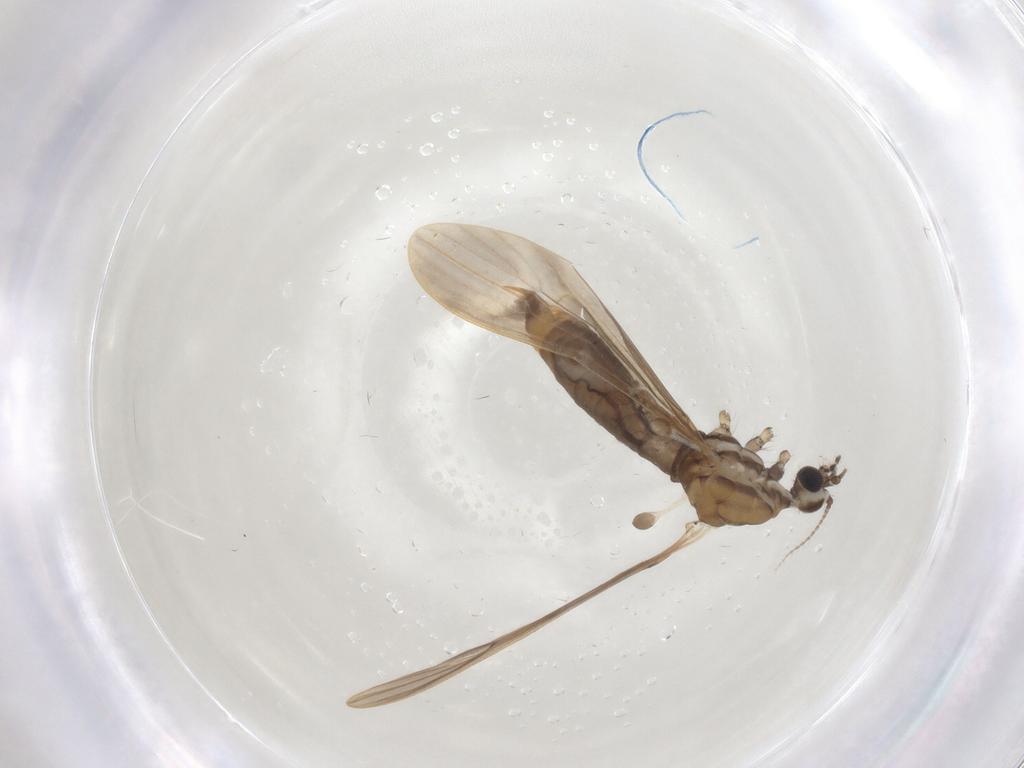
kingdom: Animalia
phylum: Arthropoda
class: Insecta
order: Diptera
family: Limoniidae
